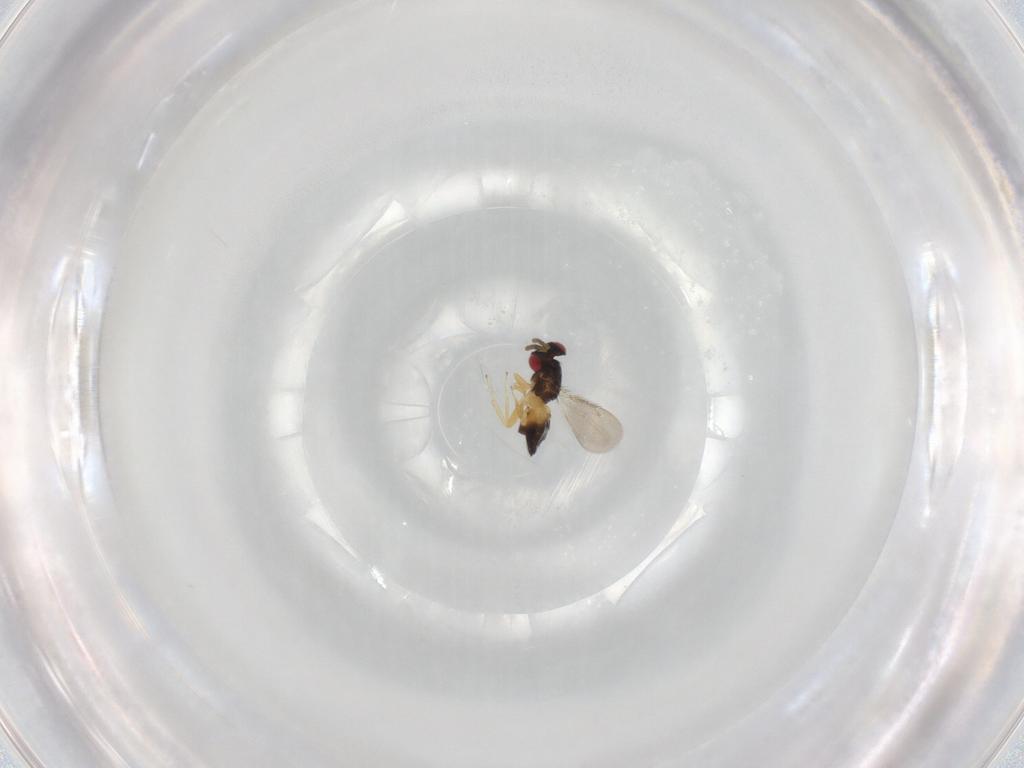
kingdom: Animalia
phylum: Arthropoda
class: Insecta
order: Hymenoptera
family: Eulophidae
